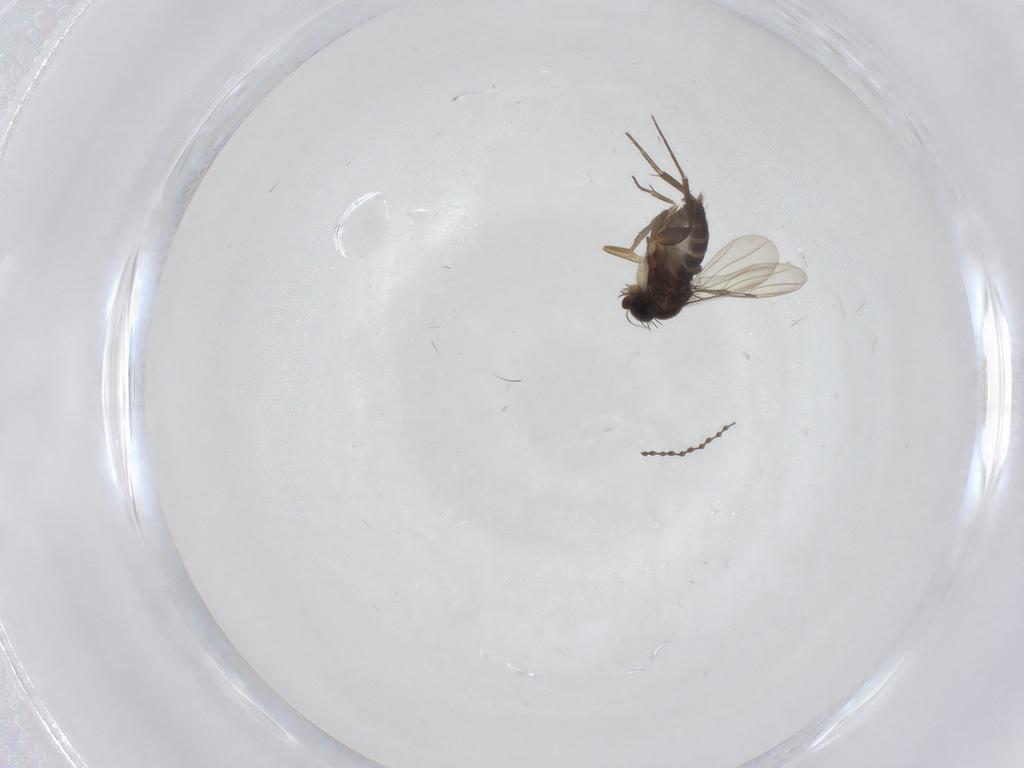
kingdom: Animalia
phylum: Arthropoda
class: Insecta
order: Diptera
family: Cecidomyiidae
